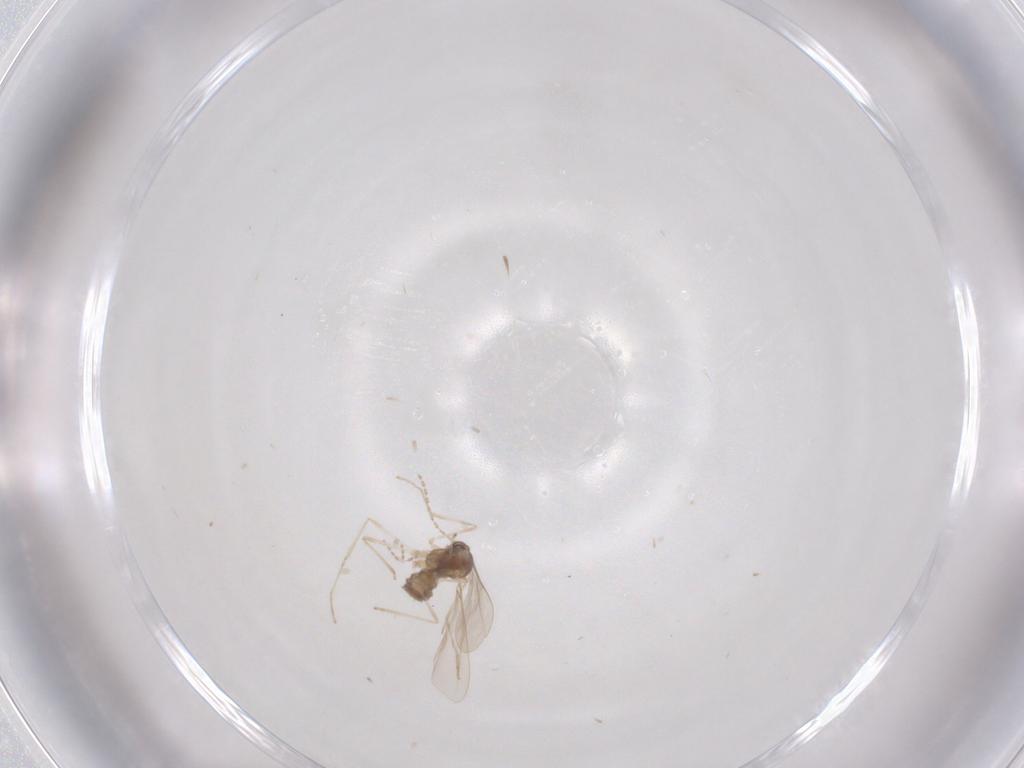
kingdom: Animalia
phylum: Arthropoda
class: Insecta
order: Diptera
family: Cecidomyiidae
